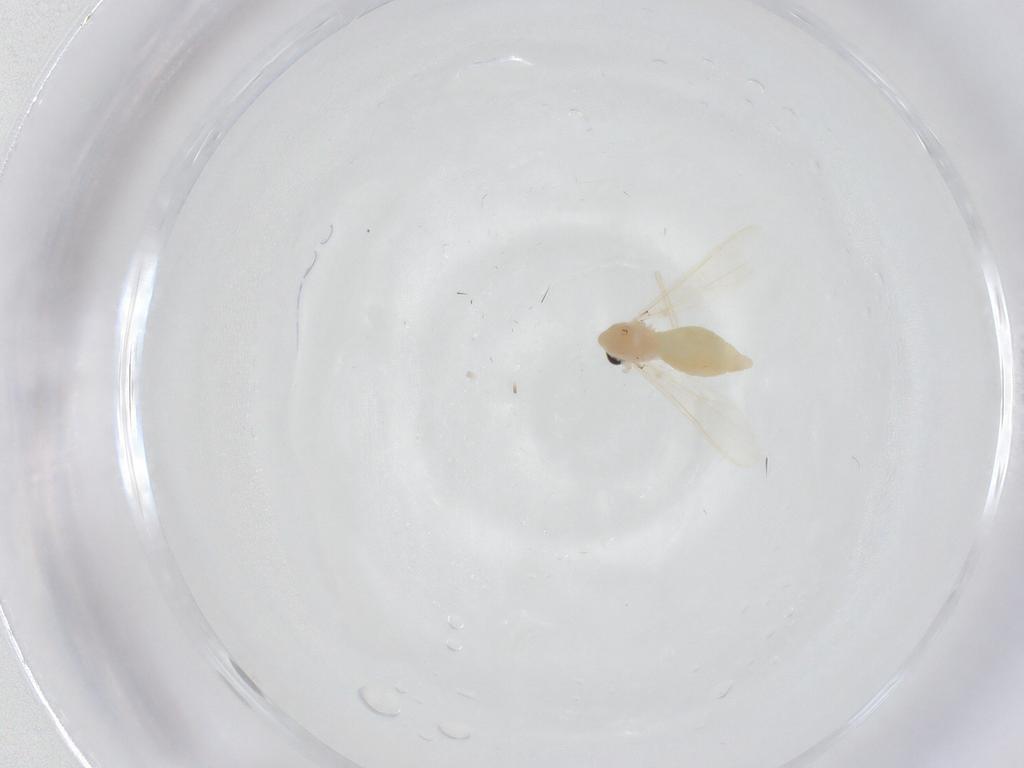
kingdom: Animalia
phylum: Arthropoda
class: Insecta
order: Diptera
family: Chironomidae
